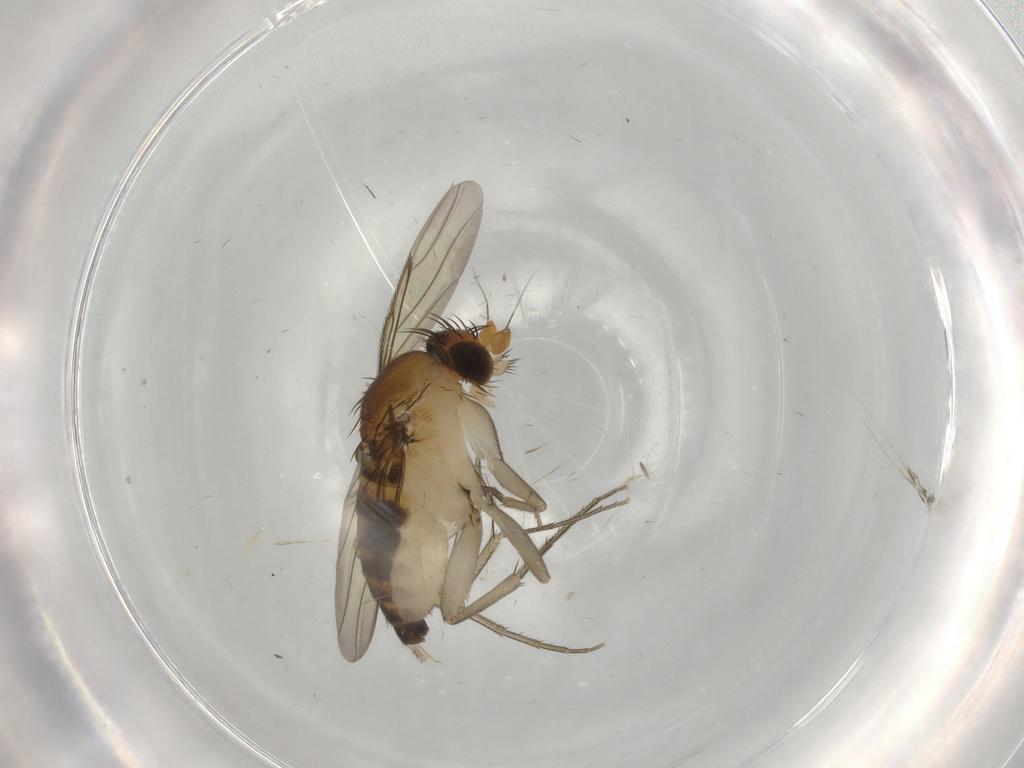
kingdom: Animalia
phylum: Arthropoda
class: Insecta
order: Diptera
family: Phoridae
